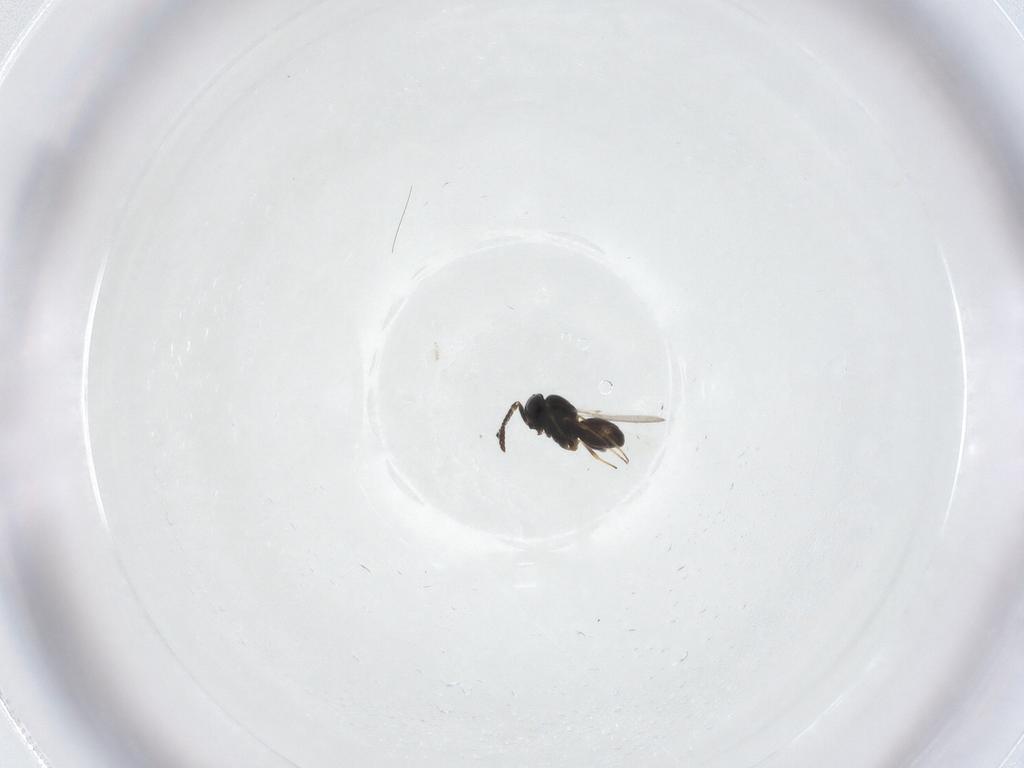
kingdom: Animalia
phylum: Arthropoda
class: Insecta
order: Hymenoptera
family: Scelionidae
